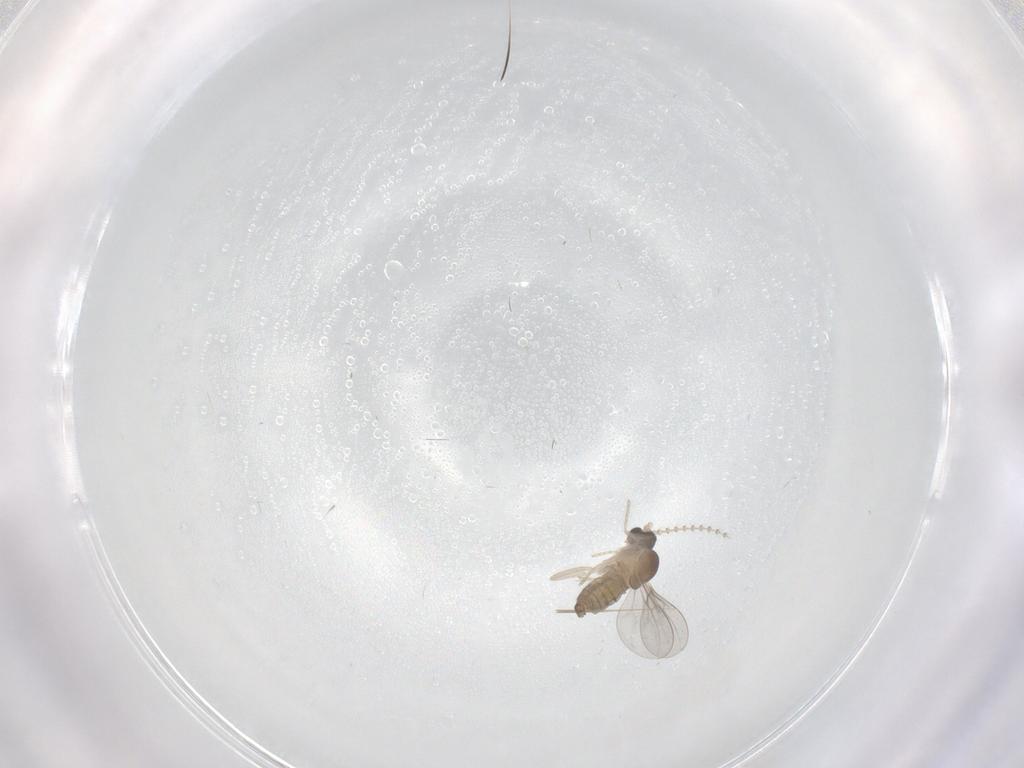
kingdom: Animalia
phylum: Arthropoda
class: Insecta
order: Diptera
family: Cecidomyiidae
